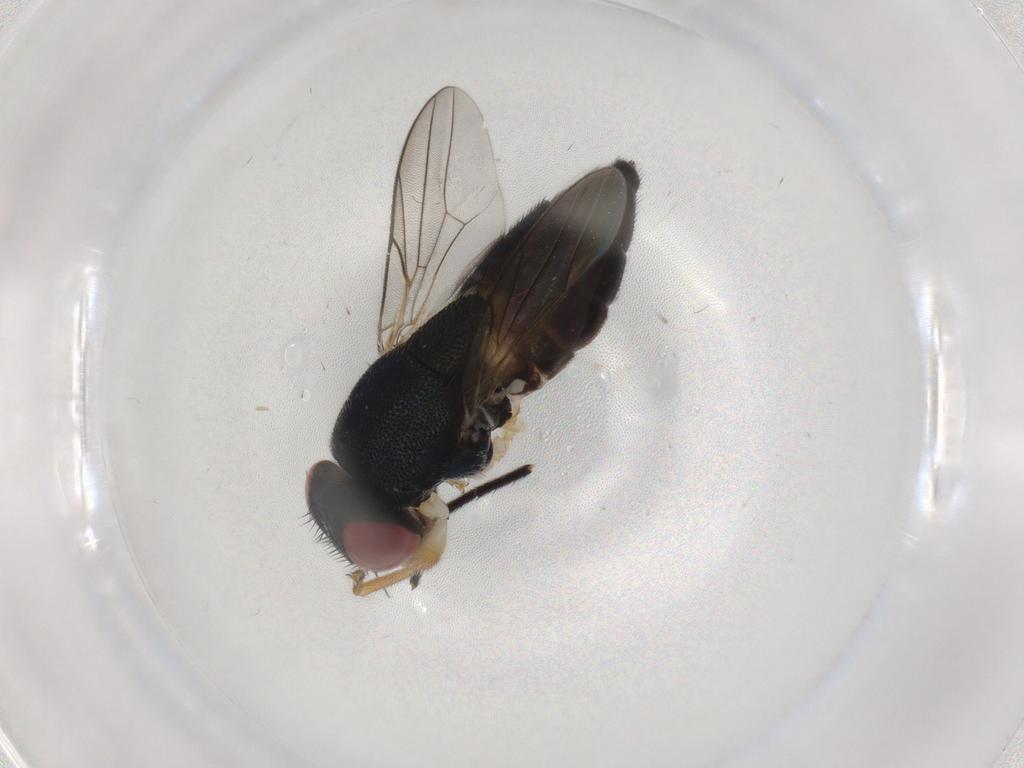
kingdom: Animalia
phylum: Arthropoda
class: Insecta
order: Diptera
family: Chloropidae
